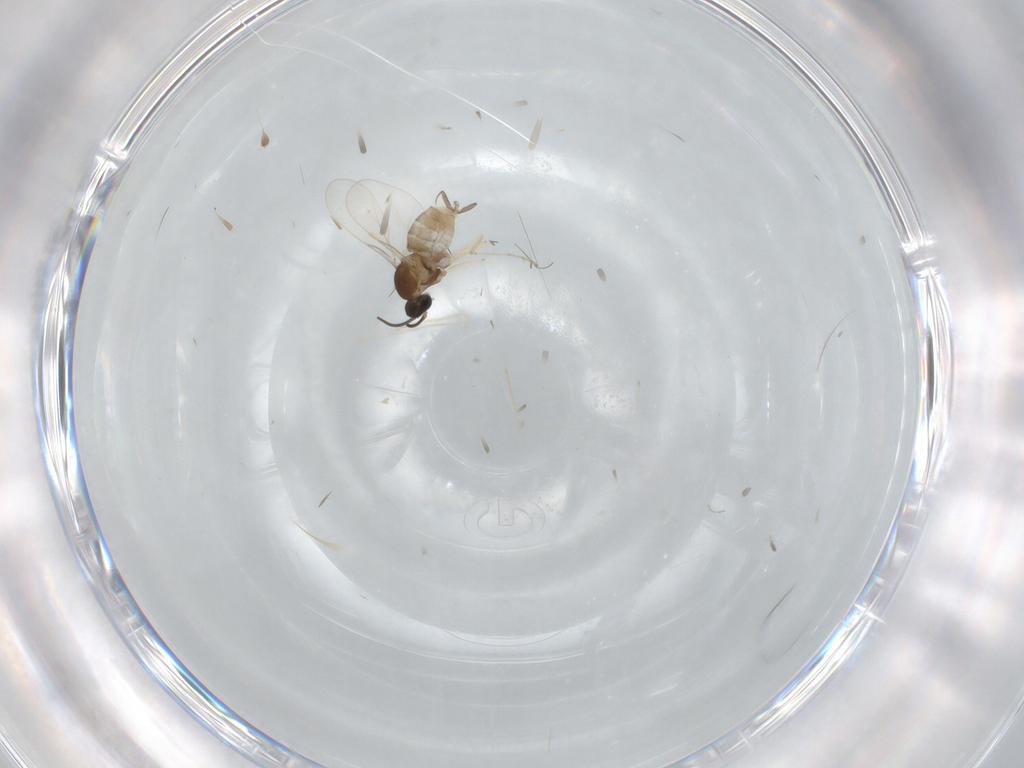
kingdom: Animalia
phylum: Arthropoda
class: Insecta
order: Diptera
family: Cecidomyiidae
